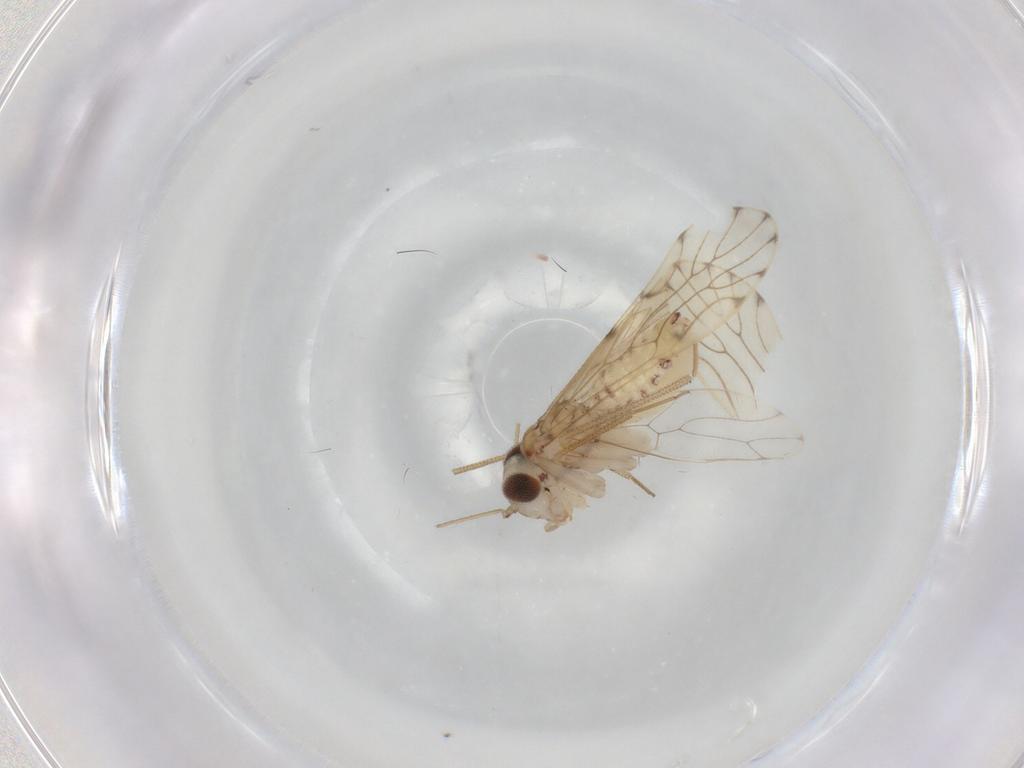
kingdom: Animalia
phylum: Arthropoda
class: Insecta
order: Psocodea
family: Epipsocidae
